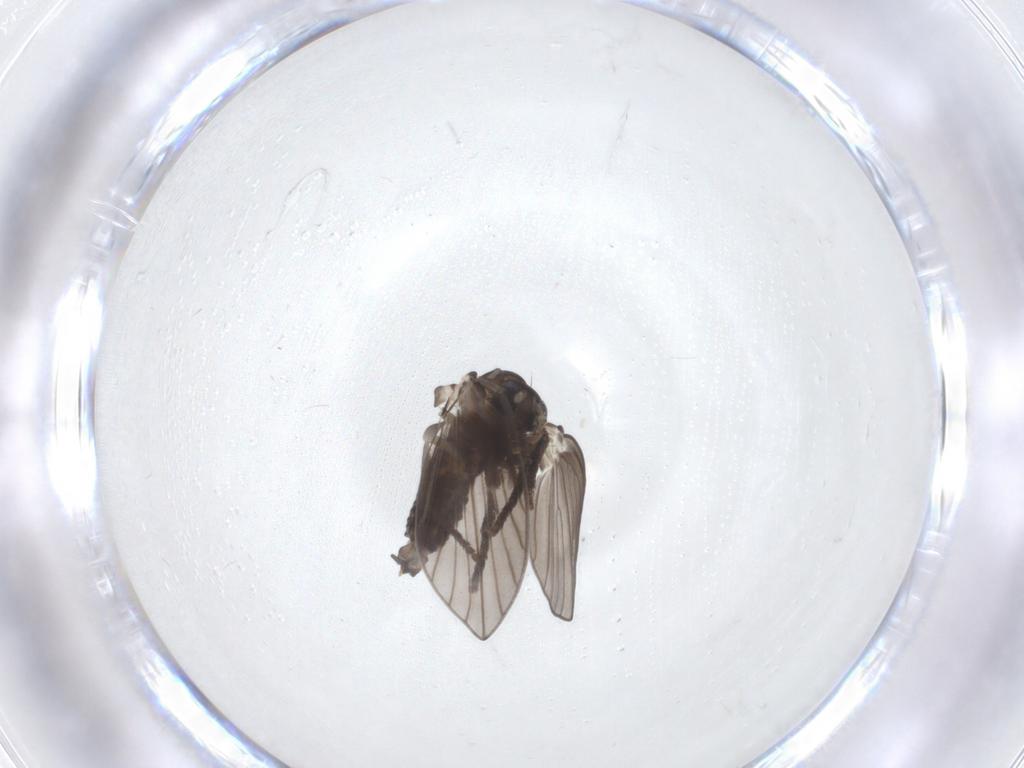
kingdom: Animalia
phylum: Arthropoda
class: Insecta
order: Diptera
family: Psychodidae
